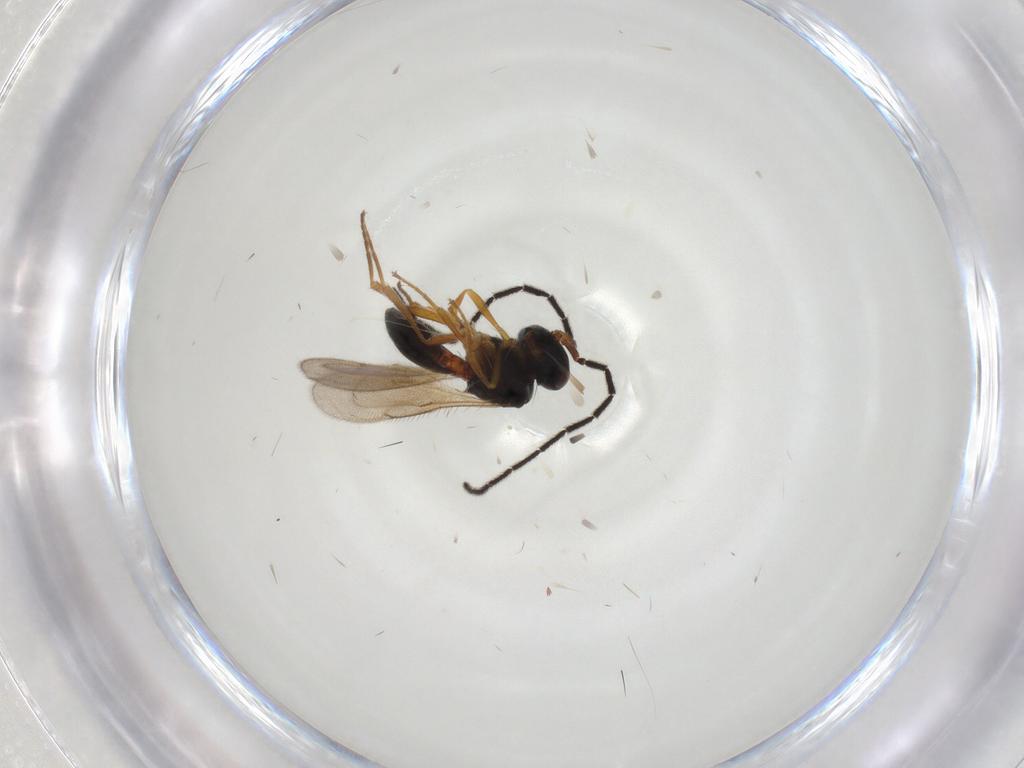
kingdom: Animalia
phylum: Arthropoda
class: Insecta
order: Hymenoptera
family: Scelionidae
